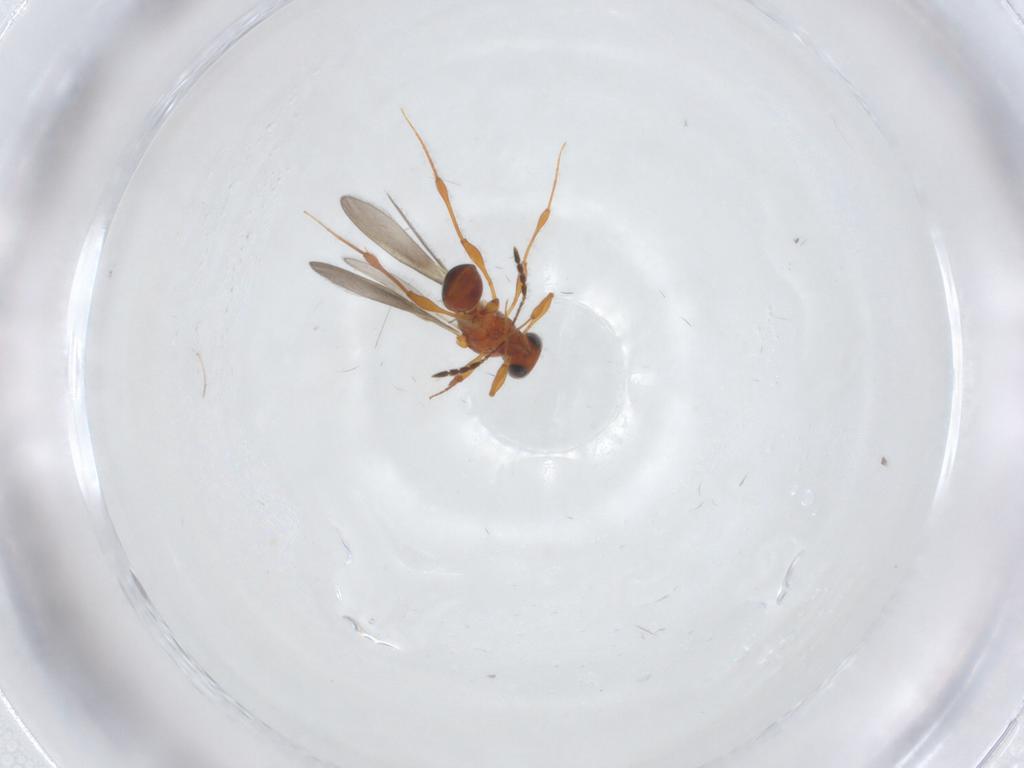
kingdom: Animalia
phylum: Arthropoda
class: Insecta
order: Hymenoptera
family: Platygastridae
